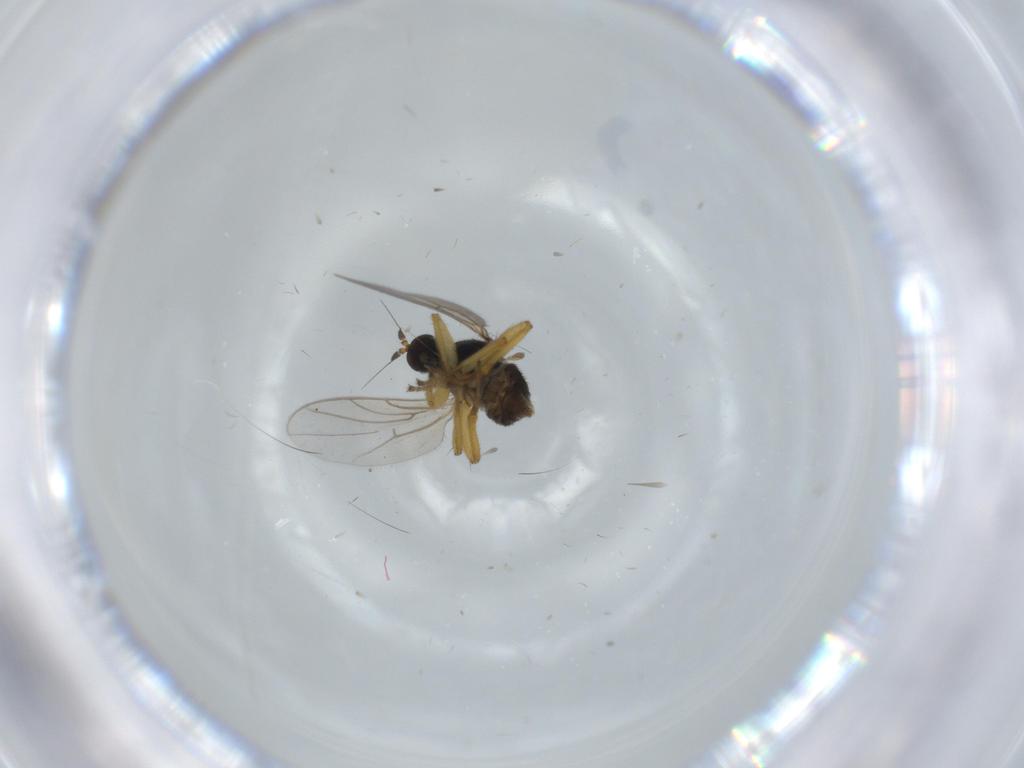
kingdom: Animalia
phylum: Arthropoda
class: Insecta
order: Diptera
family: Hybotidae
